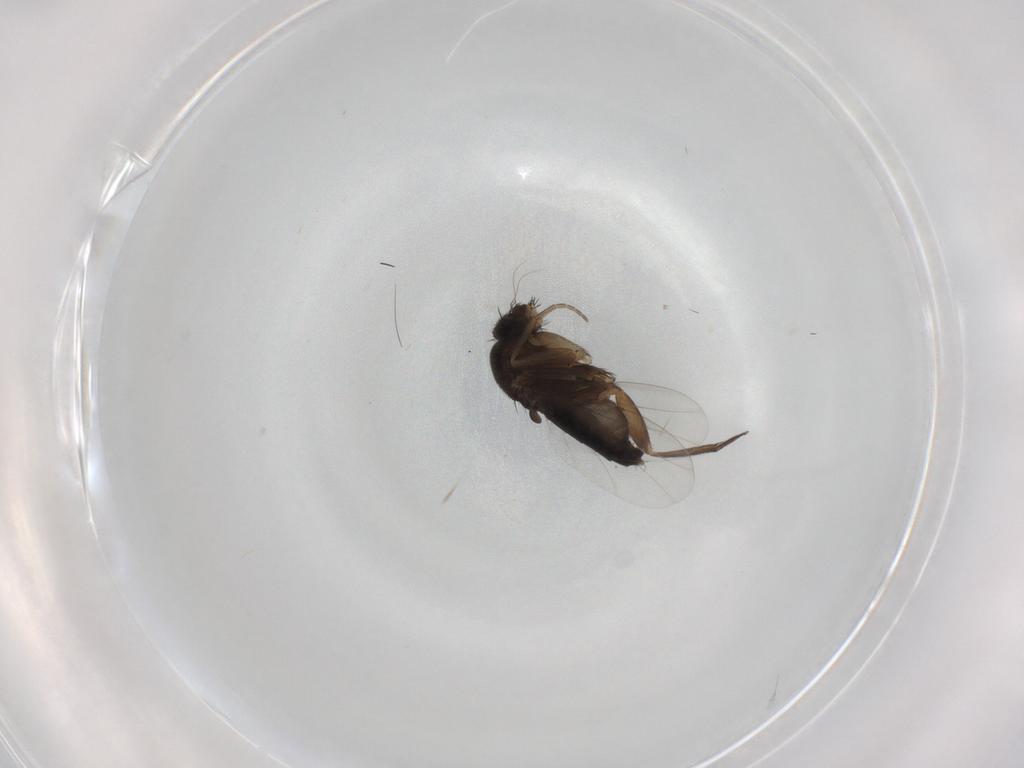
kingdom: Animalia
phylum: Arthropoda
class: Insecta
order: Diptera
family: Phoridae
